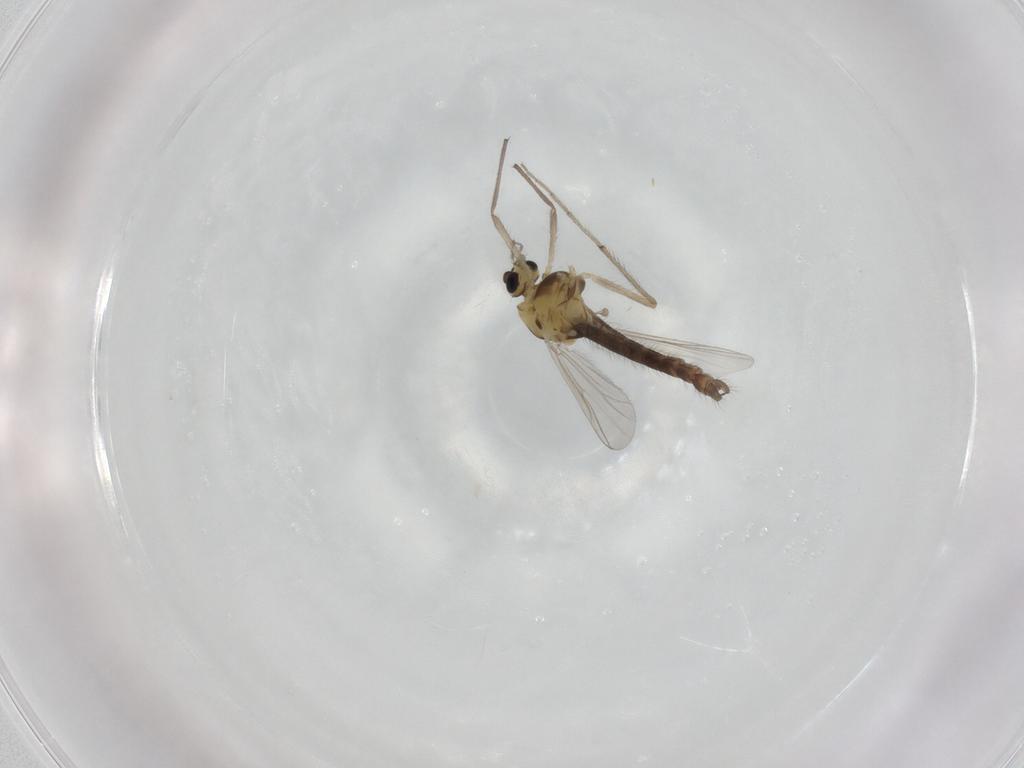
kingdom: Animalia
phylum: Arthropoda
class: Insecta
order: Diptera
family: Chironomidae
